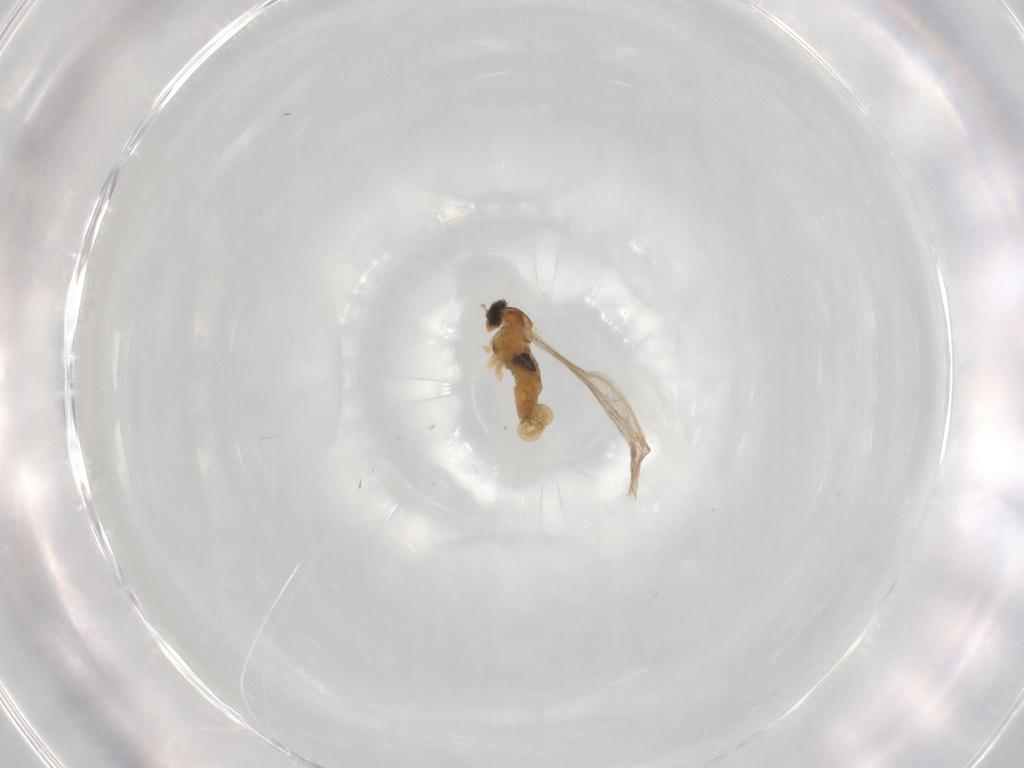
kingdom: Animalia
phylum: Arthropoda
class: Insecta
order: Diptera
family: Cecidomyiidae
